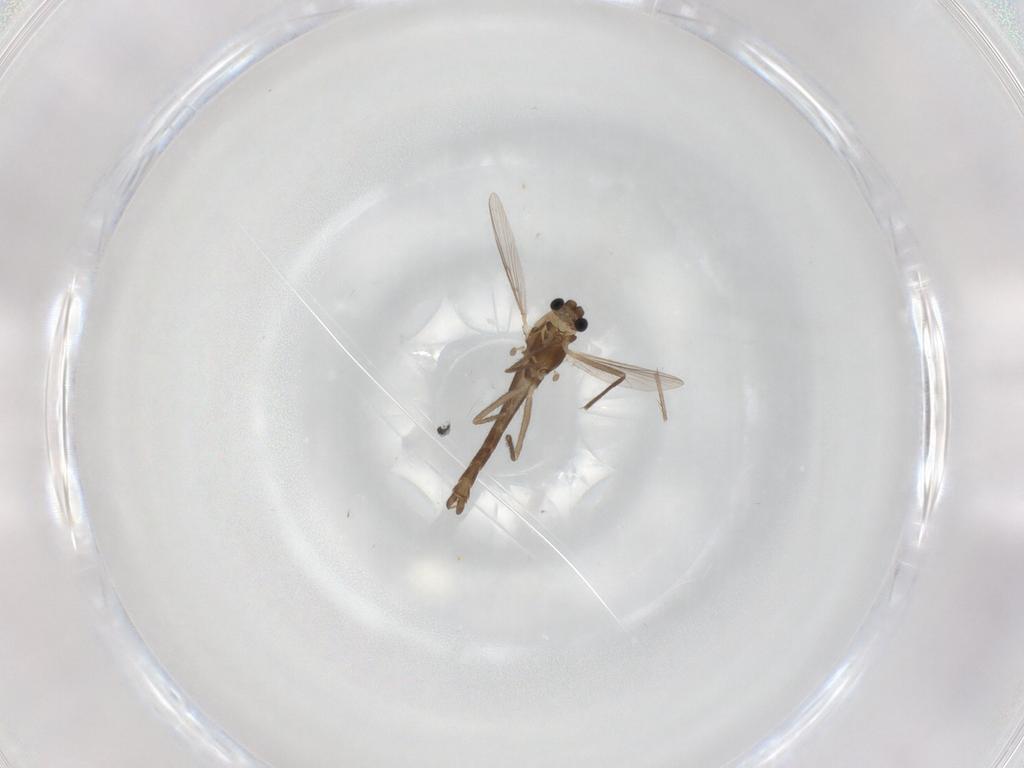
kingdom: Animalia
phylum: Arthropoda
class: Insecta
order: Diptera
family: Chironomidae
